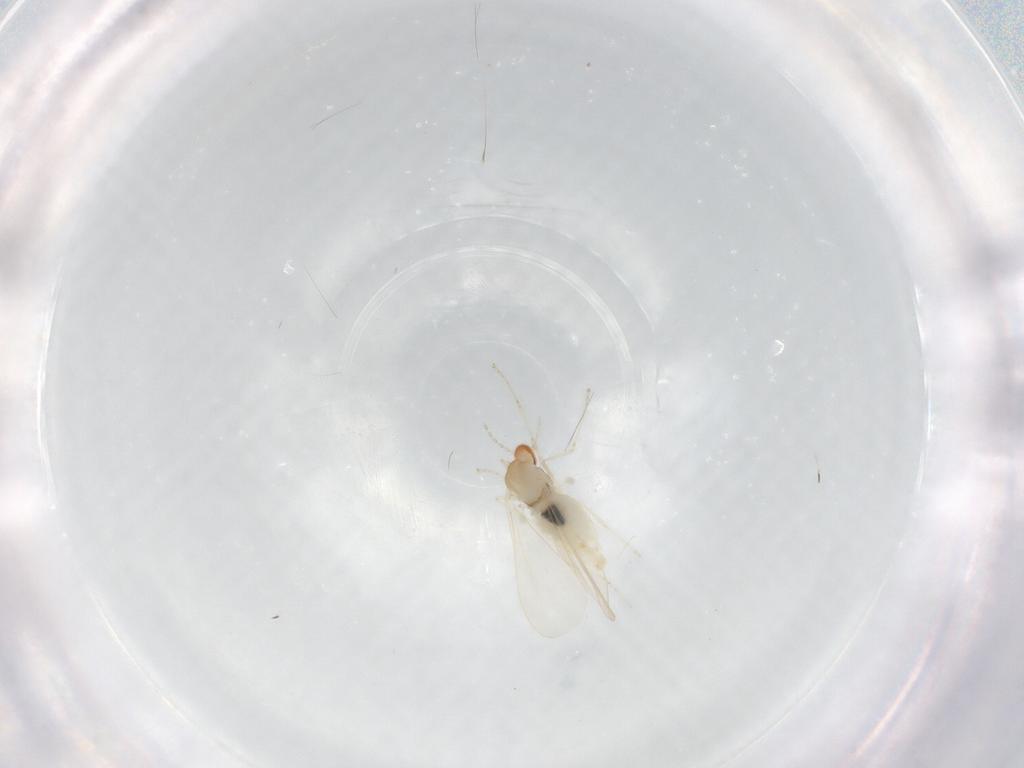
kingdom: Animalia
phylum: Arthropoda
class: Insecta
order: Diptera
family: Cecidomyiidae
